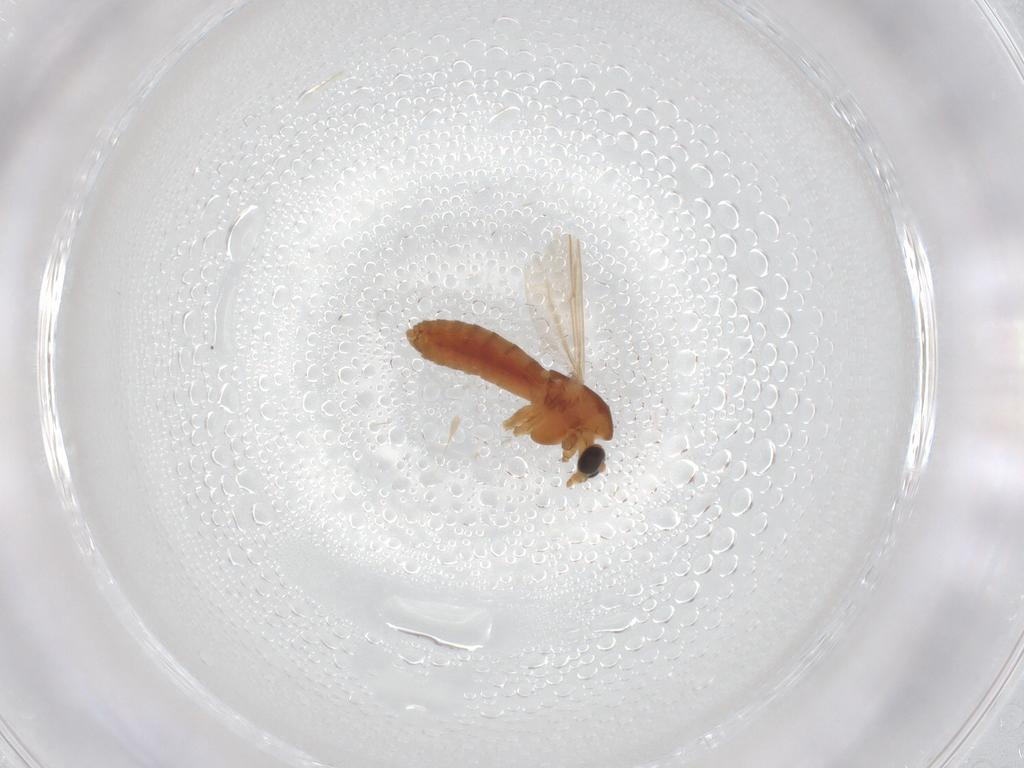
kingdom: Animalia
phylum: Arthropoda
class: Insecta
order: Diptera
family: Chironomidae
